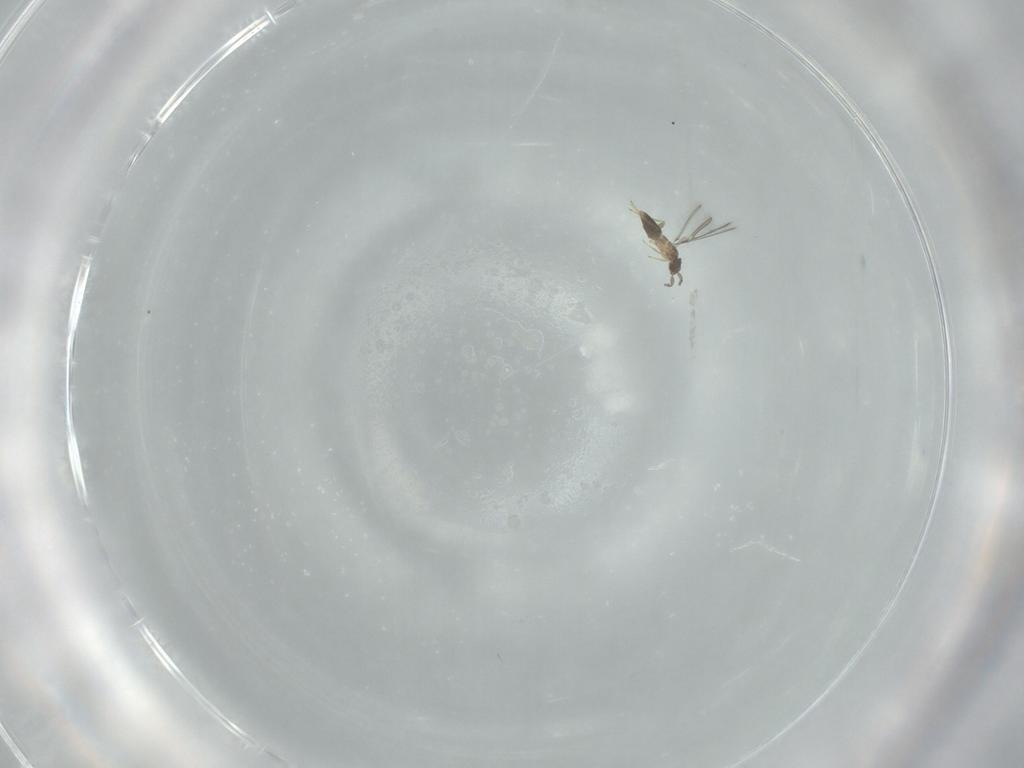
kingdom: Animalia
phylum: Arthropoda
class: Insecta
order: Hymenoptera
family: Mymaridae
